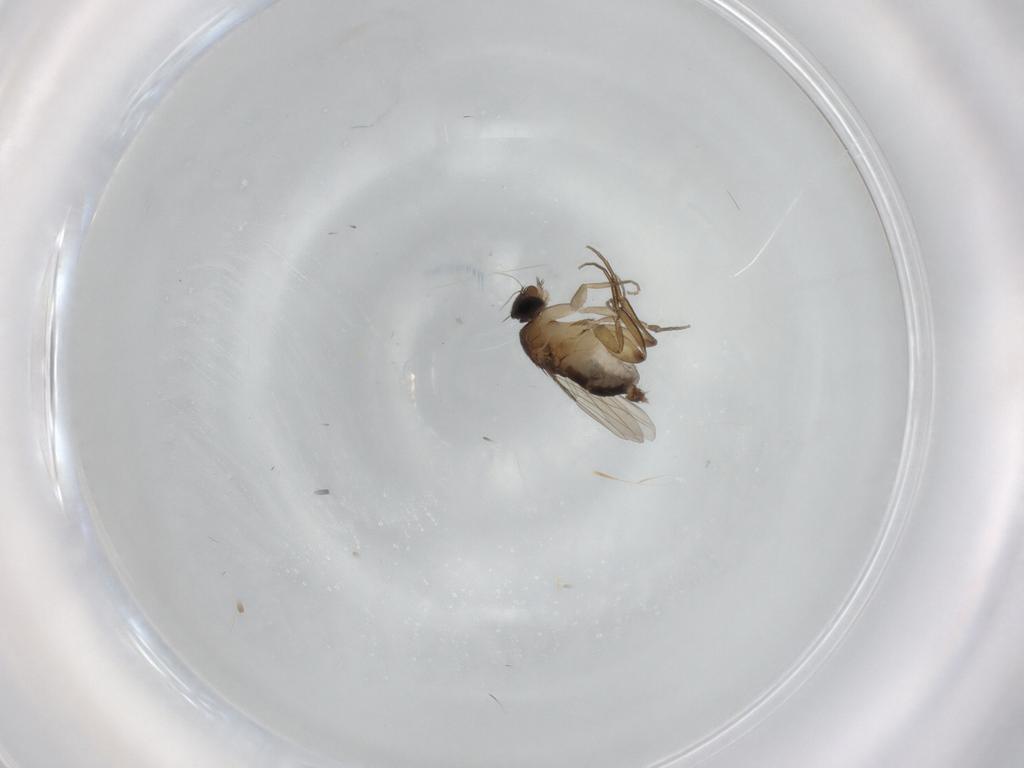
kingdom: Animalia
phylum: Arthropoda
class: Insecta
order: Diptera
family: Phoridae
